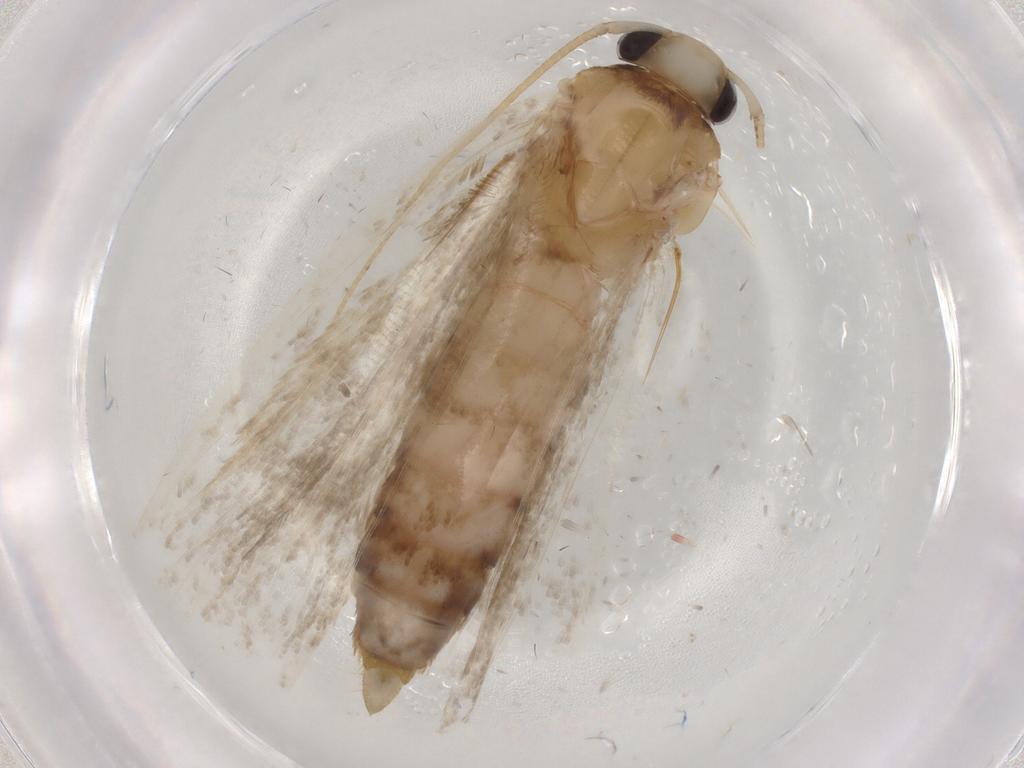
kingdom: Animalia
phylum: Arthropoda
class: Insecta
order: Lepidoptera
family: Autostichidae
